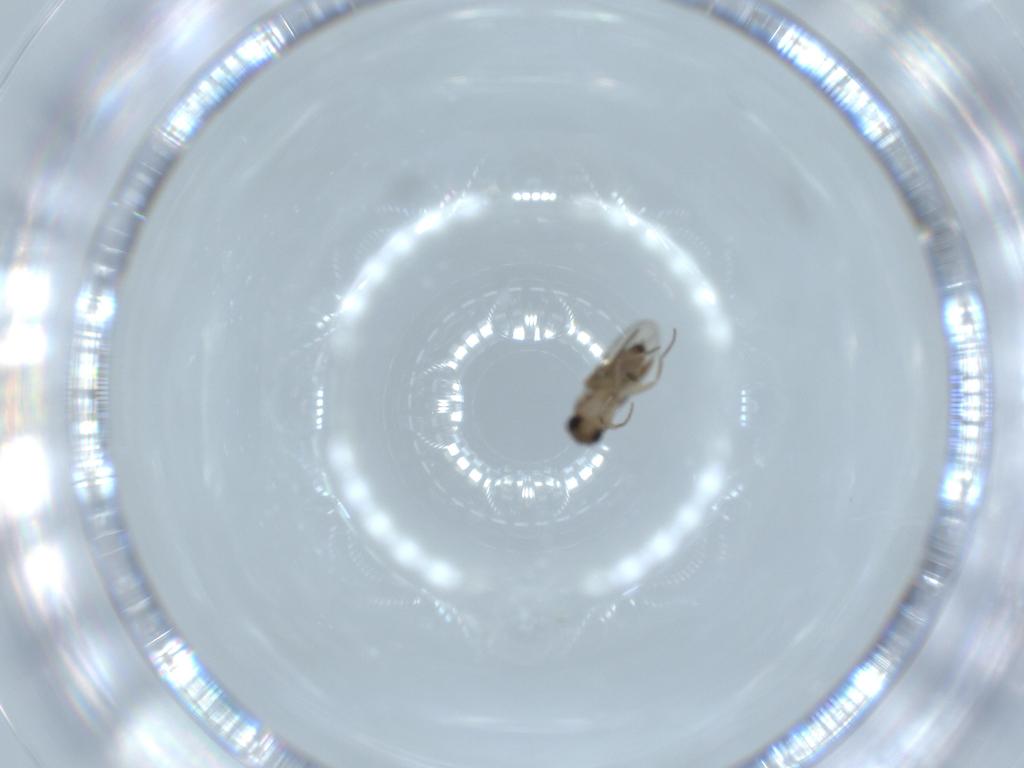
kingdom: Animalia
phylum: Arthropoda
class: Insecta
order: Diptera
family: Phoridae
